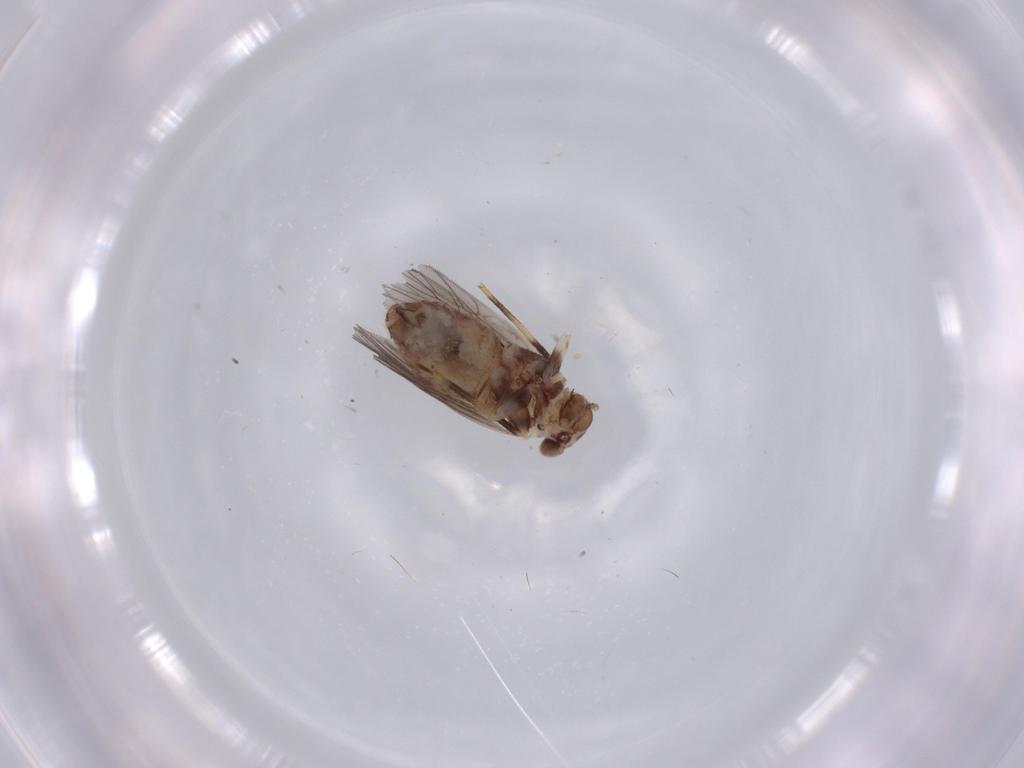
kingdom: Animalia
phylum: Arthropoda
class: Insecta
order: Psocodea
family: Lepidopsocidae
